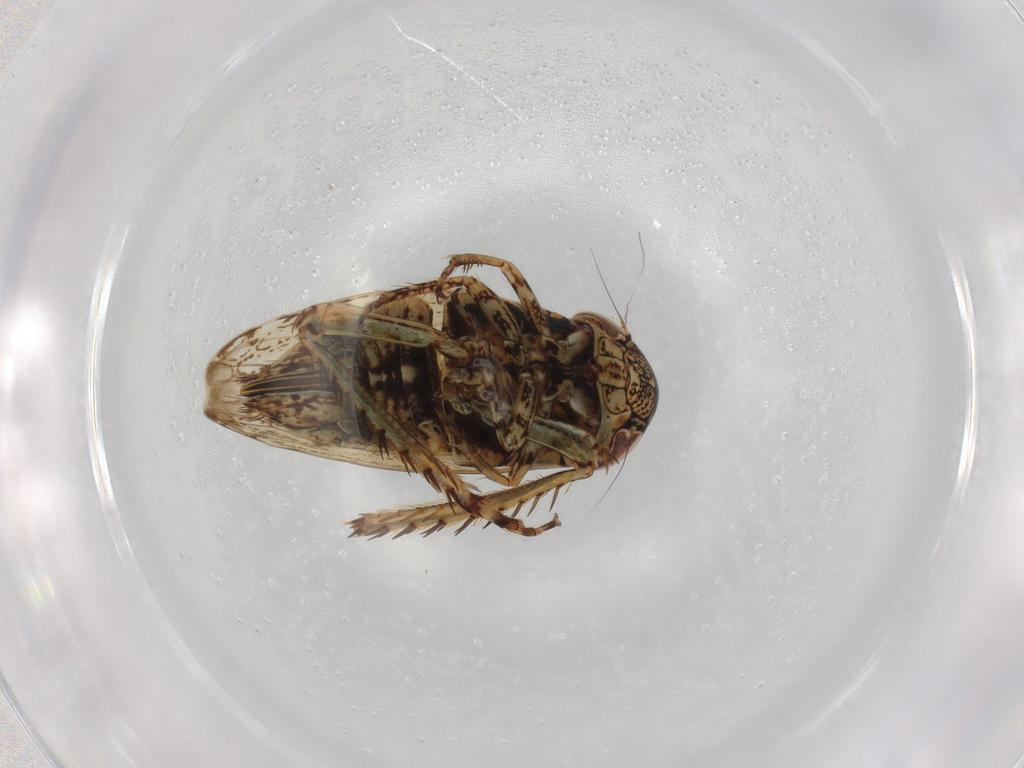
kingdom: Animalia
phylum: Arthropoda
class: Insecta
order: Hemiptera
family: Cicadellidae
